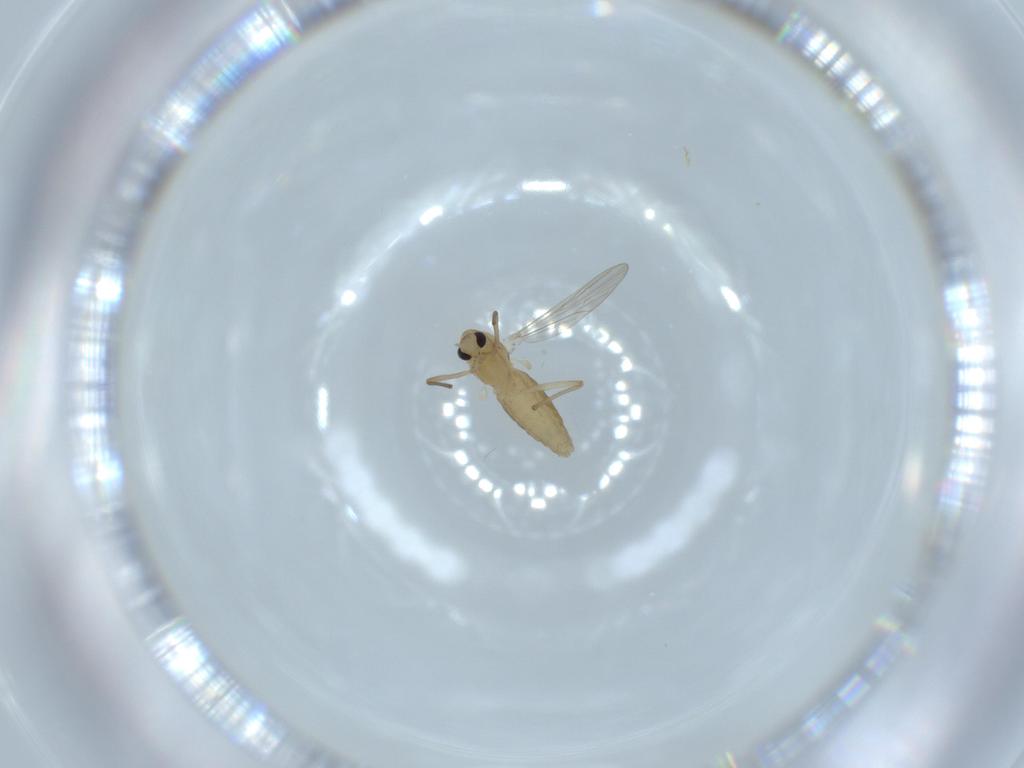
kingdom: Animalia
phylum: Arthropoda
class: Insecta
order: Diptera
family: Chironomidae
